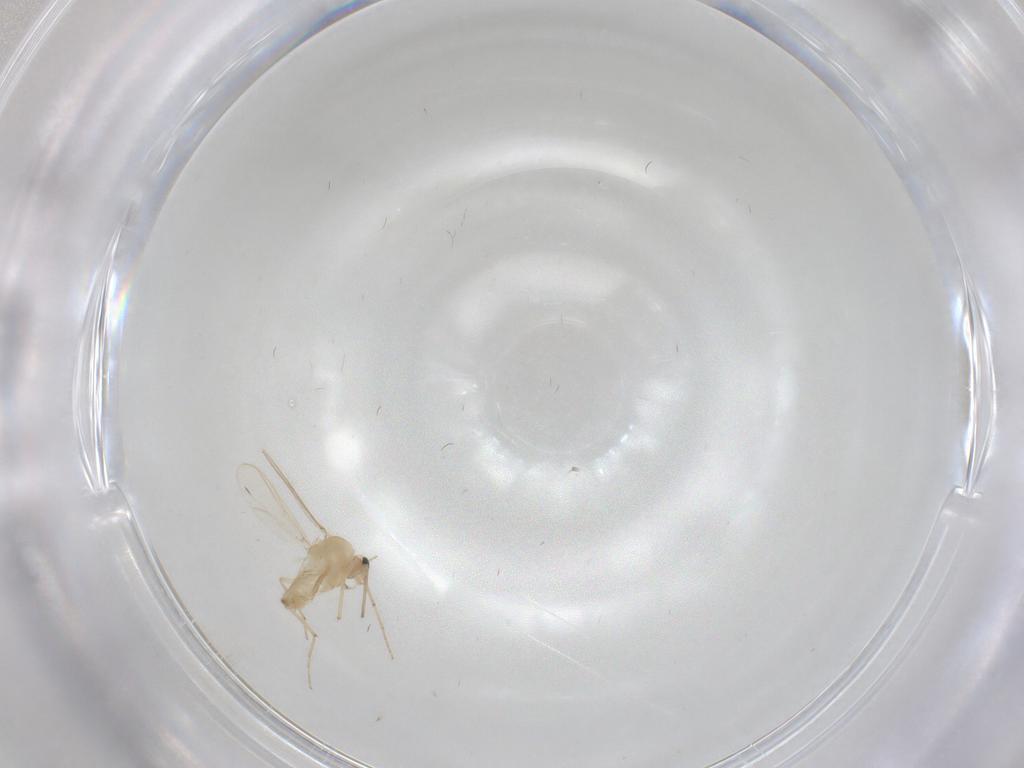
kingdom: Animalia
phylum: Arthropoda
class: Insecta
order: Diptera
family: Chironomidae
